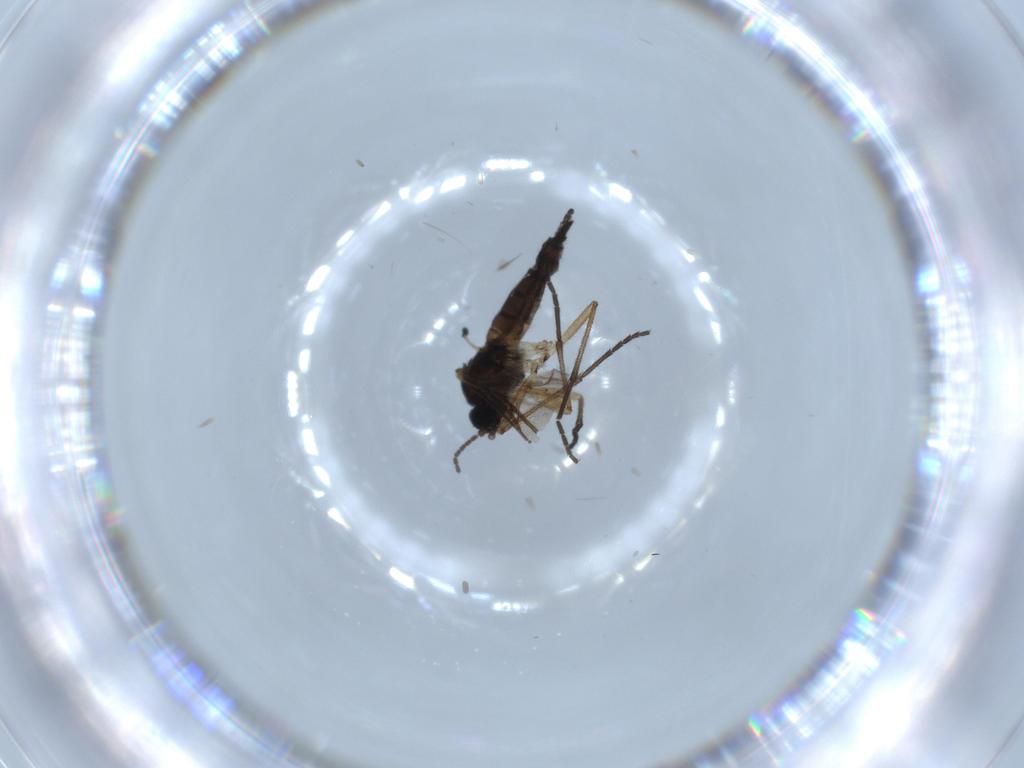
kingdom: Animalia
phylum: Arthropoda
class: Insecta
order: Diptera
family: Sciaridae
